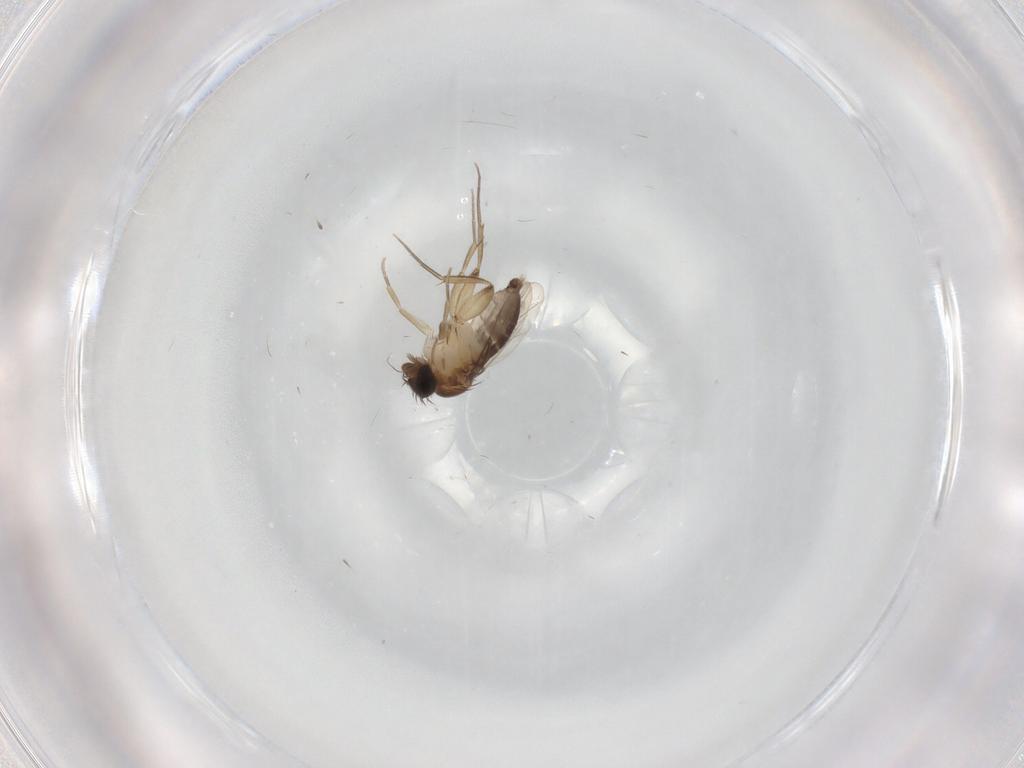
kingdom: Animalia
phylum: Arthropoda
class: Insecta
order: Diptera
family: Phoridae
